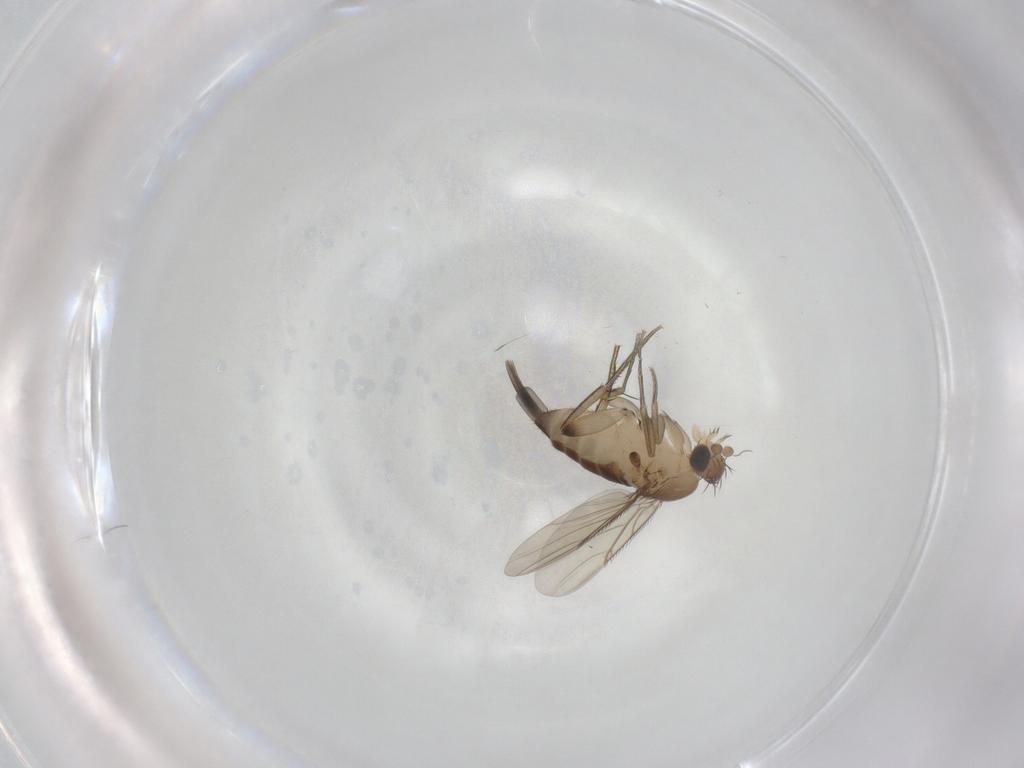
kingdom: Animalia
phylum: Arthropoda
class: Insecta
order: Diptera
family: Phoridae
